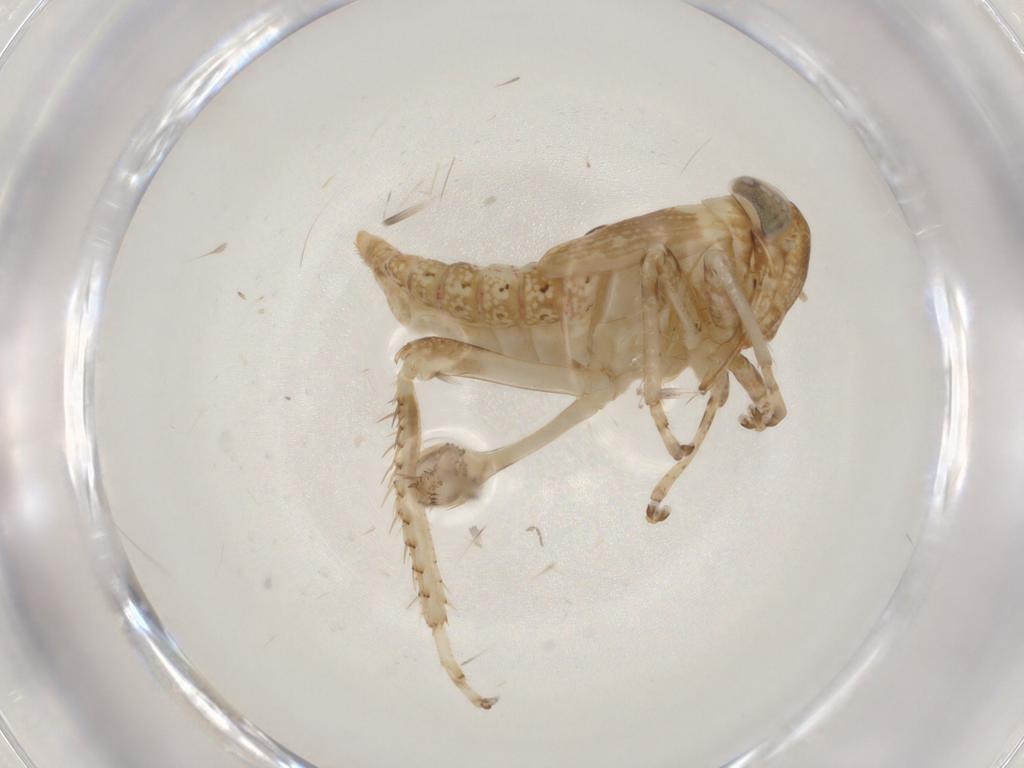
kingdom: Animalia
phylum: Arthropoda
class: Insecta
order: Hemiptera
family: Cicadellidae
